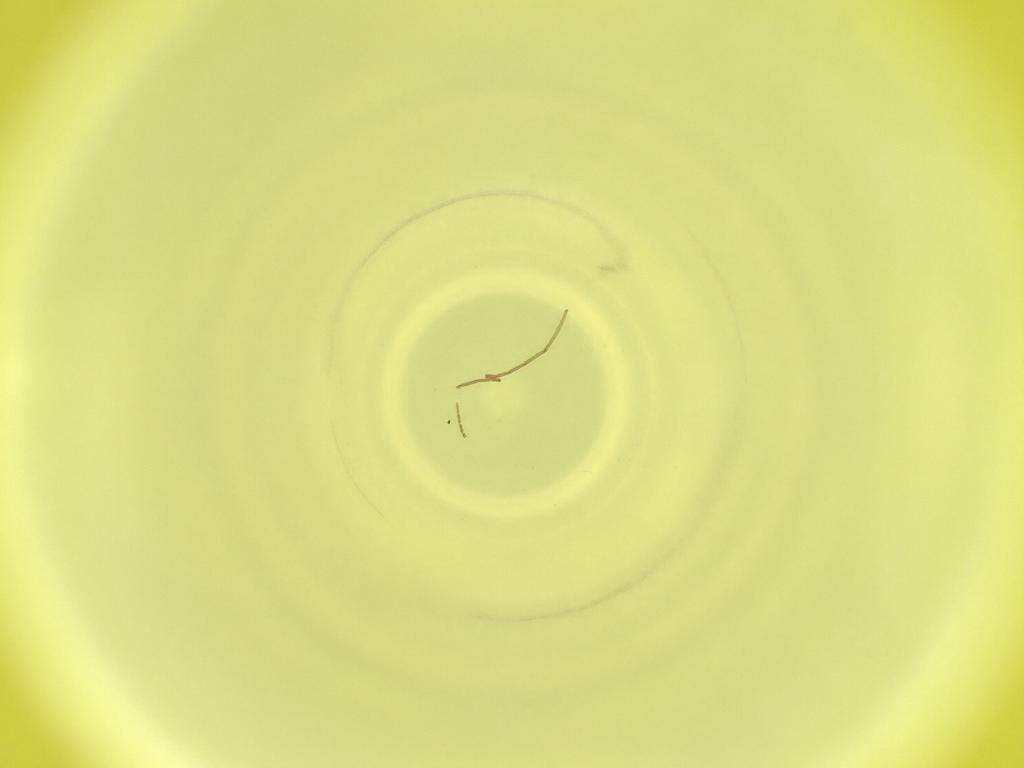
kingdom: Animalia
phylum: Arthropoda
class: Insecta
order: Diptera
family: Cecidomyiidae
